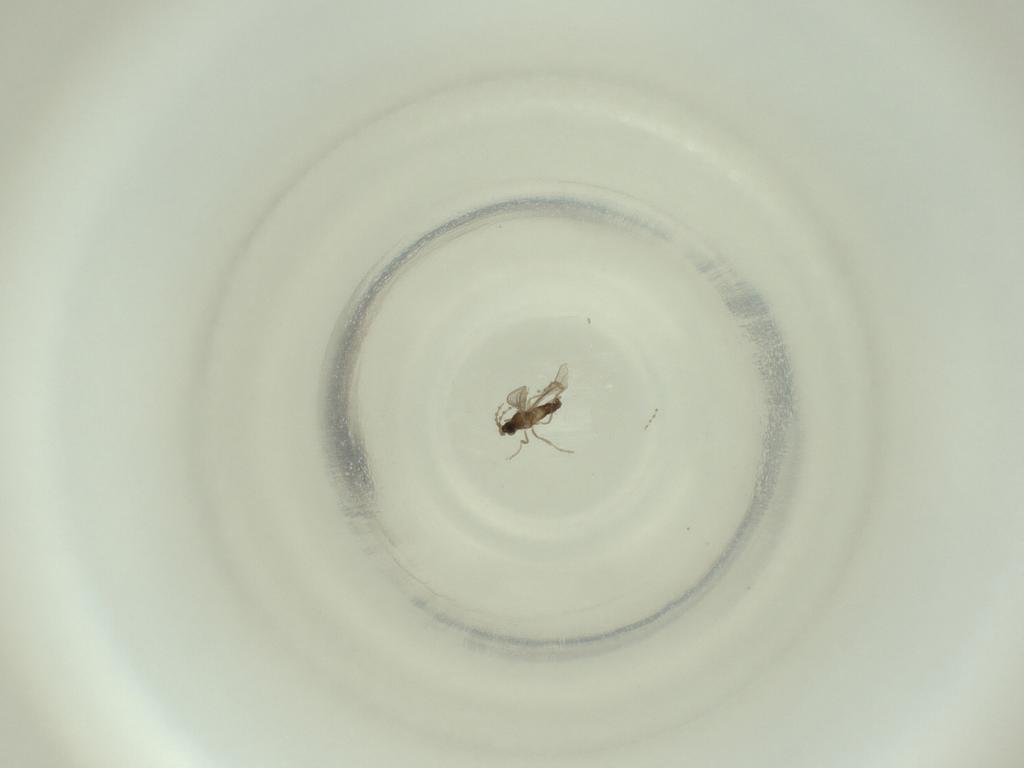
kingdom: Animalia
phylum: Arthropoda
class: Insecta
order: Diptera
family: Cecidomyiidae
